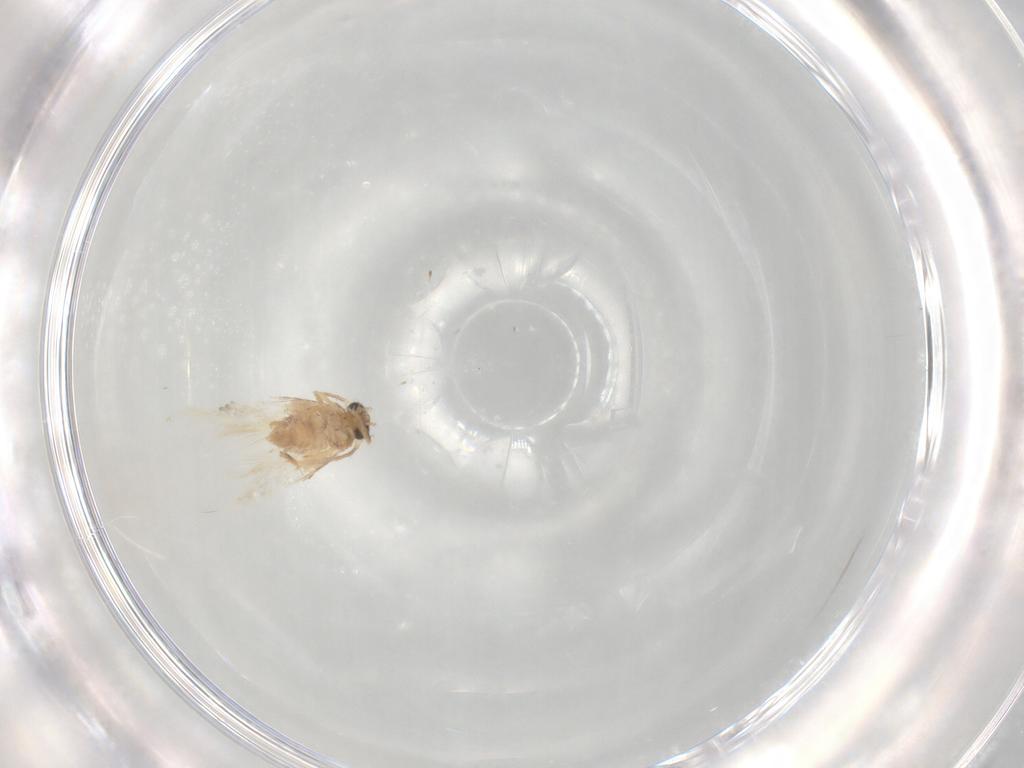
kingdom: Animalia
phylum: Arthropoda
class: Insecta
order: Lepidoptera
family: Nepticulidae
